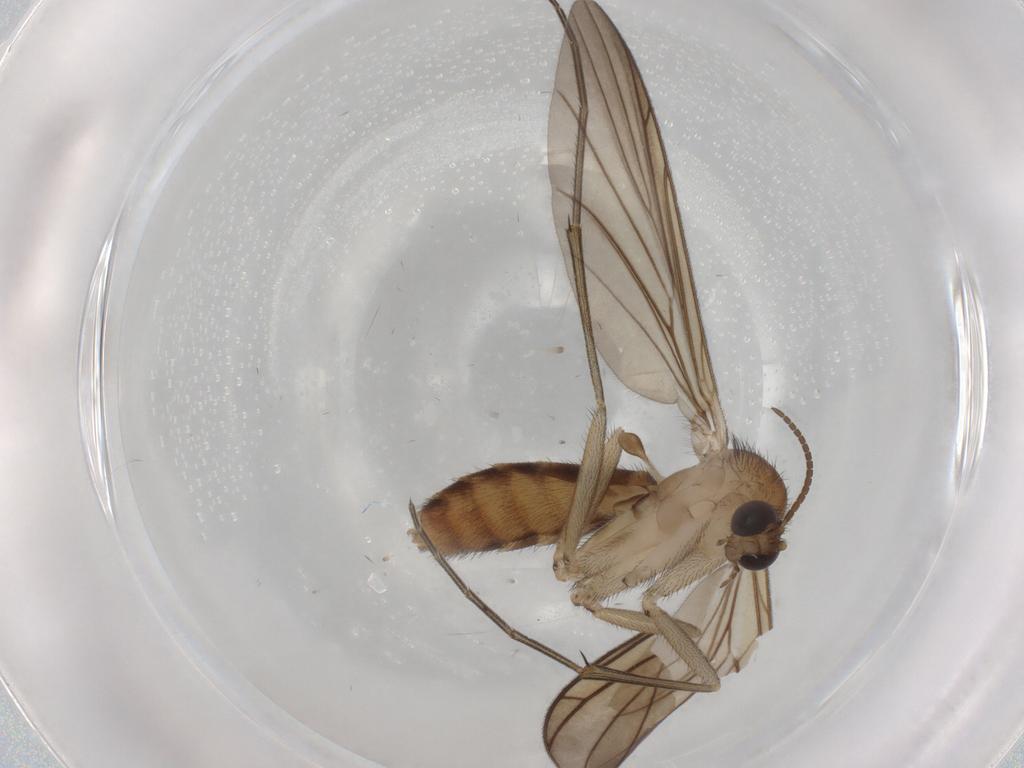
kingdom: Animalia
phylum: Arthropoda
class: Insecta
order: Diptera
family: Keroplatidae
